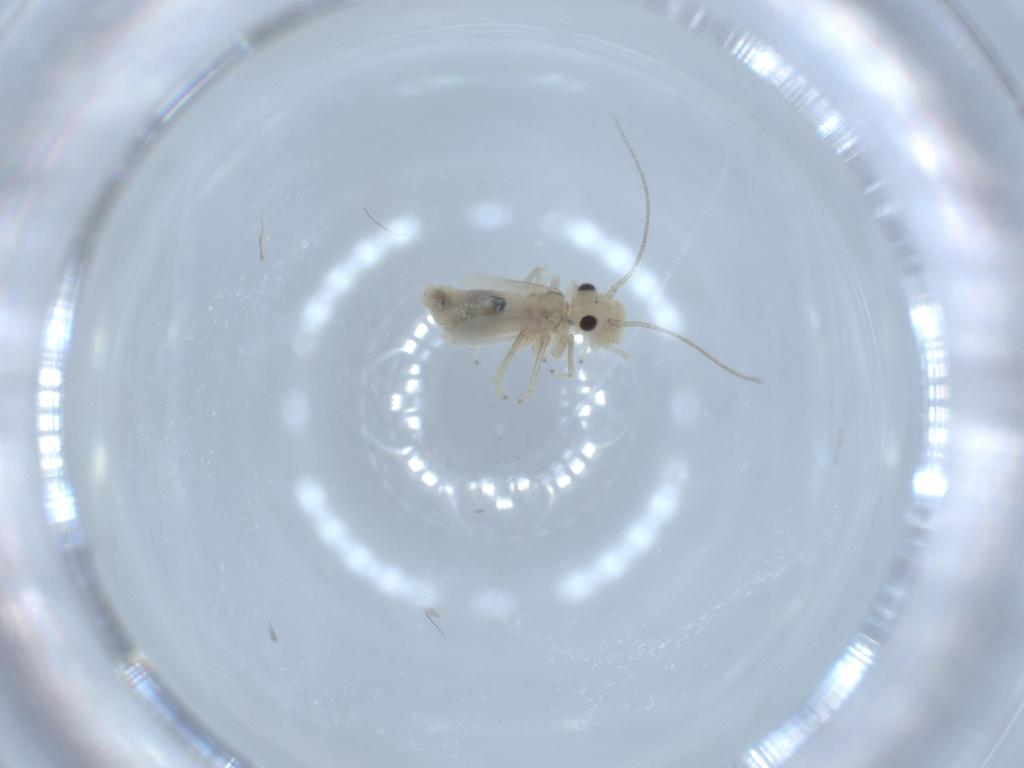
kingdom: Animalia
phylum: Arthropoda
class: Insecta
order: Psocodea
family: Caeciliusidae
